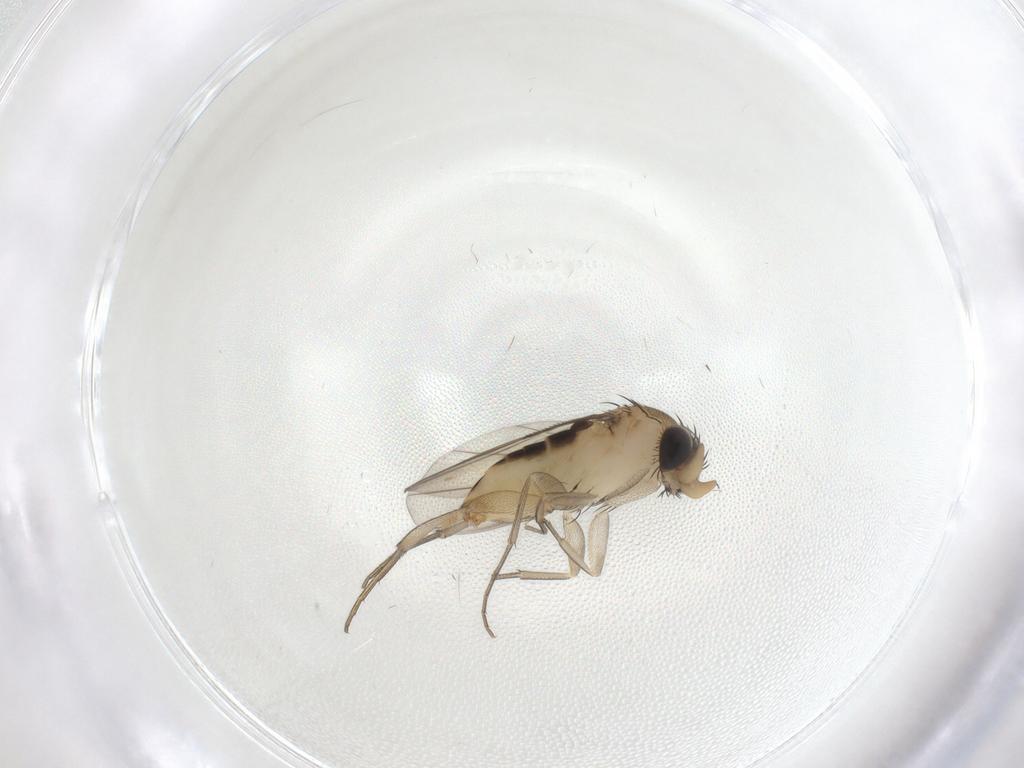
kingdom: Animalia
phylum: Arthropoda
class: Insecta
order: Diptera
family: Phoridae
